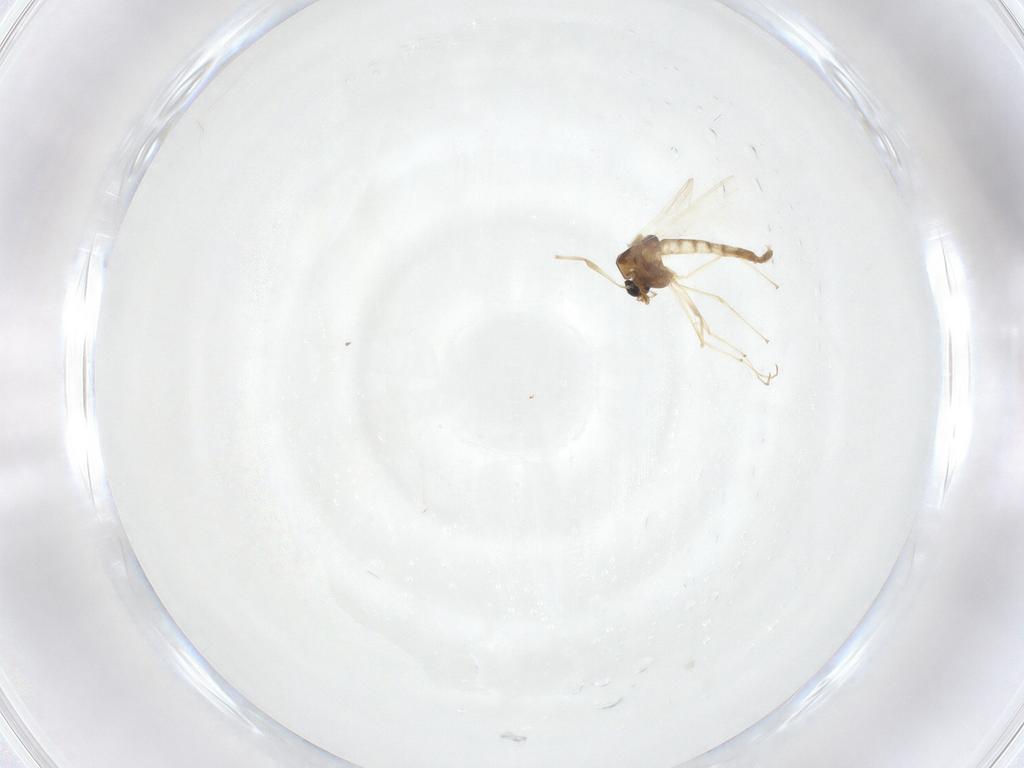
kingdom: Animalia
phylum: Arthropoda
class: Insecta
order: Diptera
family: Chironomidae
